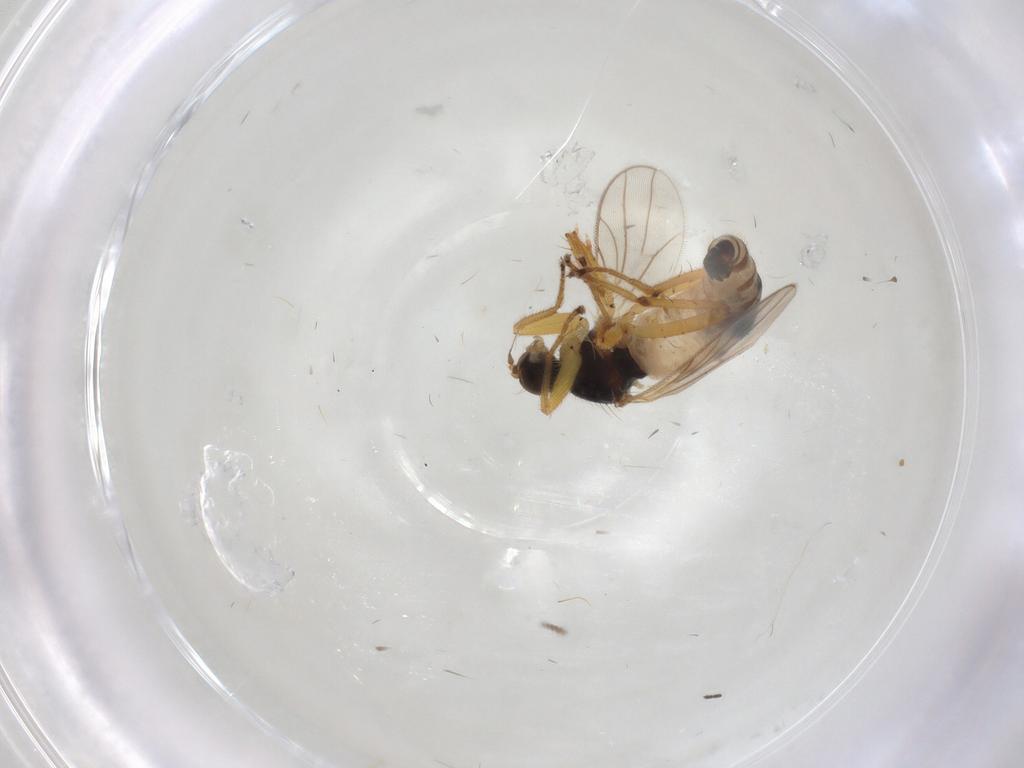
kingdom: Animalia
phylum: Arthropoda
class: Insecta
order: Diptera
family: Hybotidae
